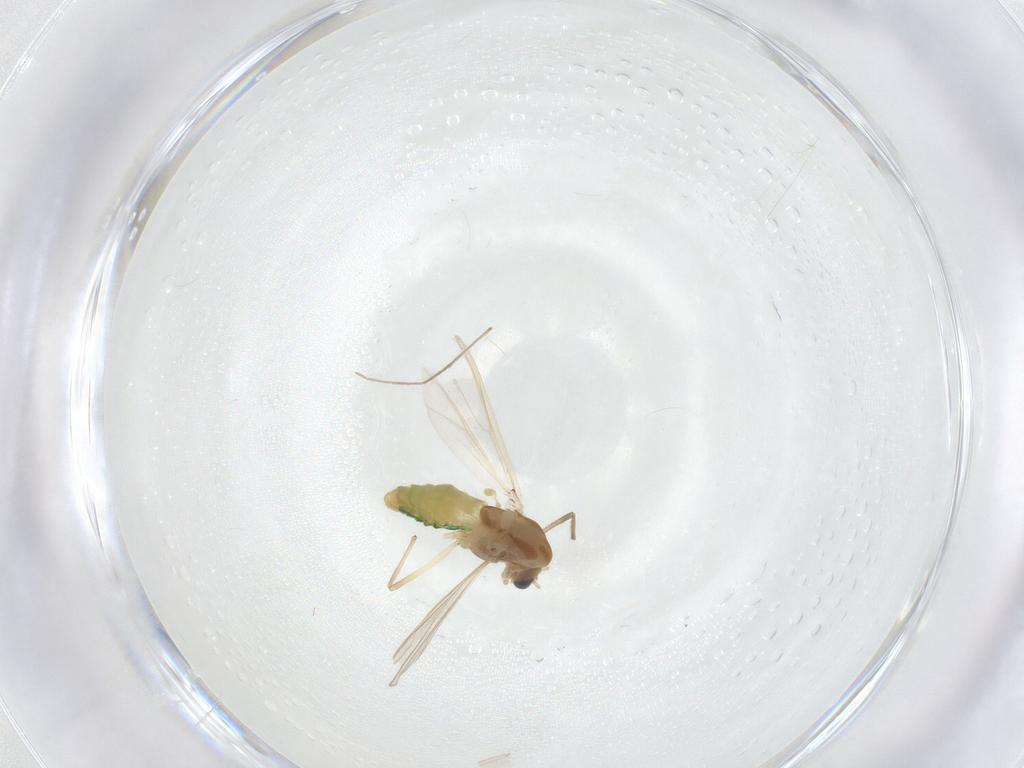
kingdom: Animalia
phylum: Arthropoda
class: Insecta
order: Diptera
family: Chironomidae
